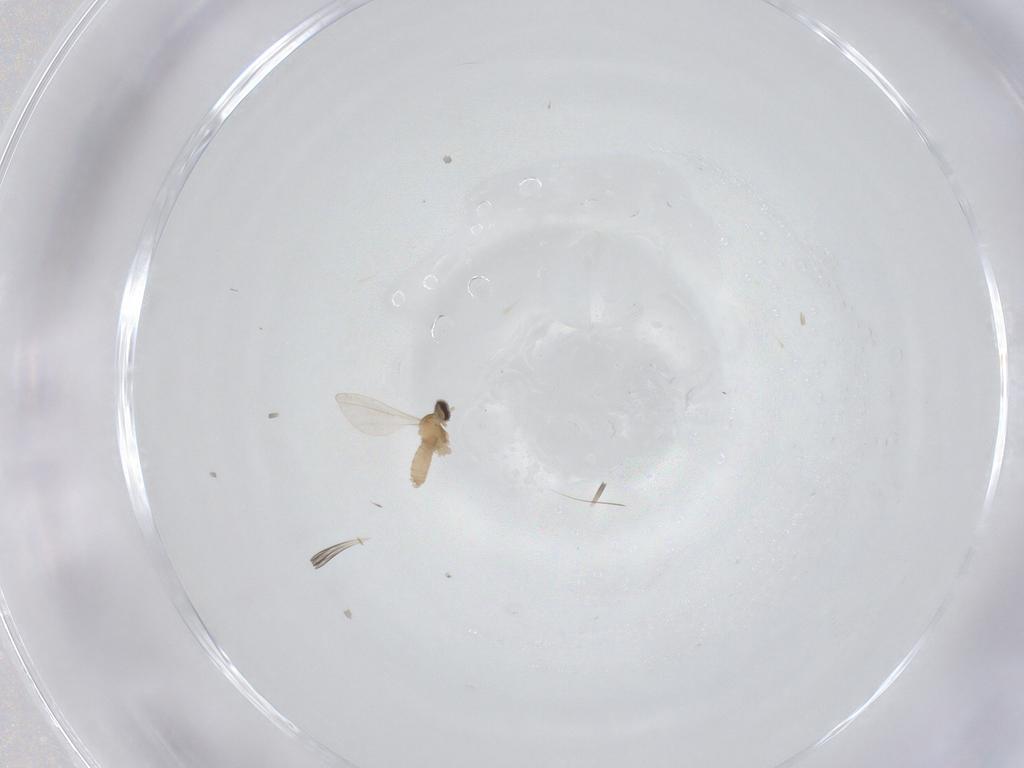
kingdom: Animalia
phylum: Arthropoda
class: Insecta
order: Diptera
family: Cecidomyiidae
